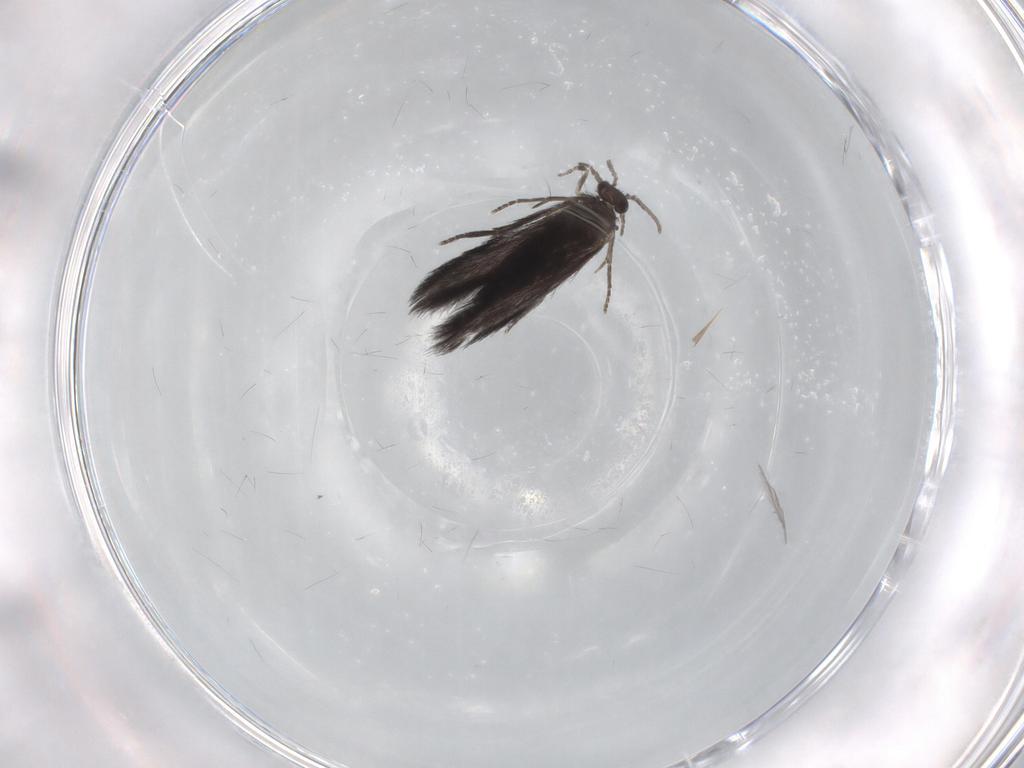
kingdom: Animalia
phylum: Arthropoda
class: Insecta
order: Trichoptera
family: Hydroptilidae
